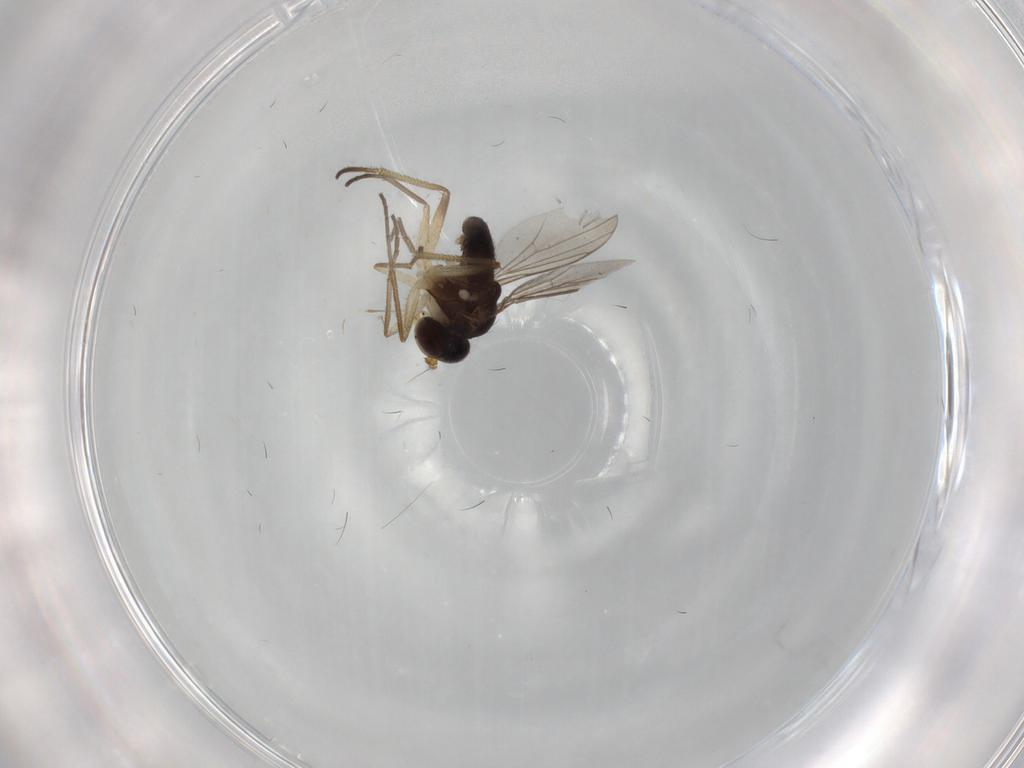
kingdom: Animalia
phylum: Arthropoda
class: Insecta
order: Diptera
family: Dolichopodidae
